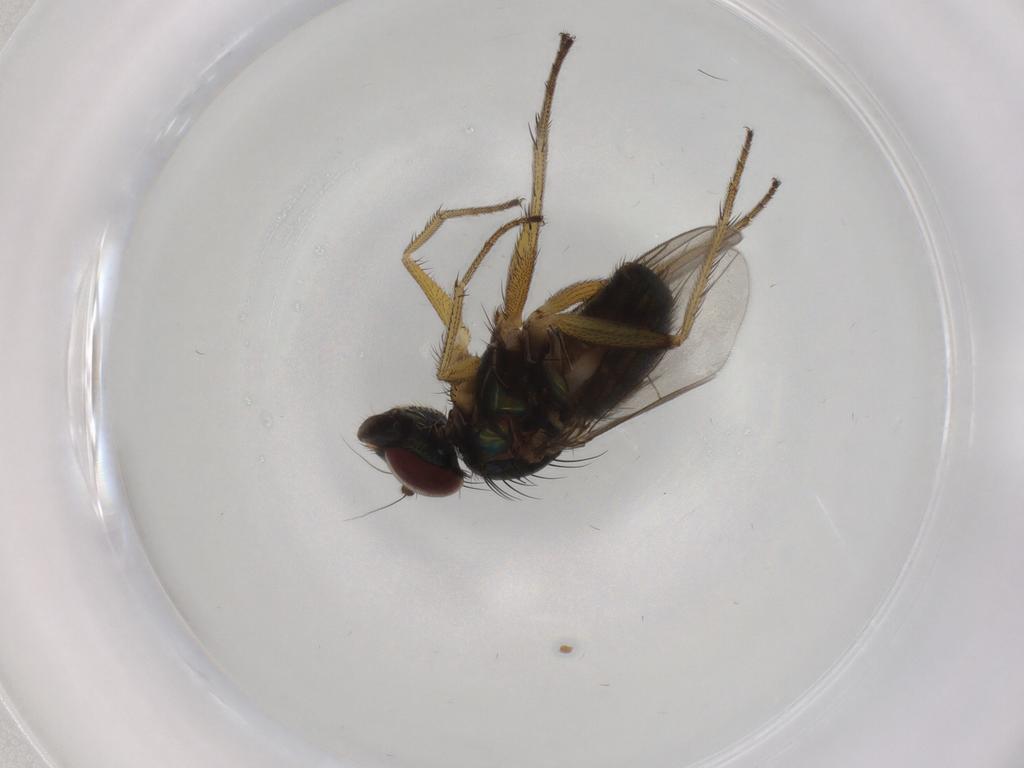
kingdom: Animalia
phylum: Arthropoda
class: Insecta
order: Diptera
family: Dolichopodidae
